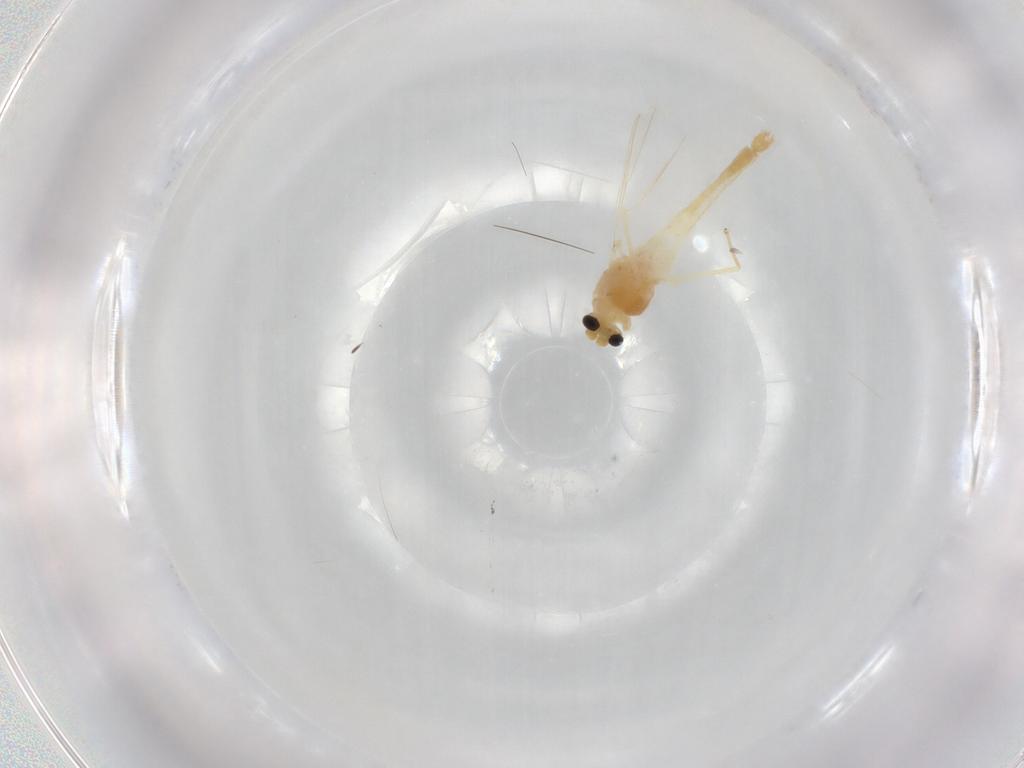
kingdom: Animalia
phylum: Arthropoda
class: Insecta
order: Diptera
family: Chironomidae
